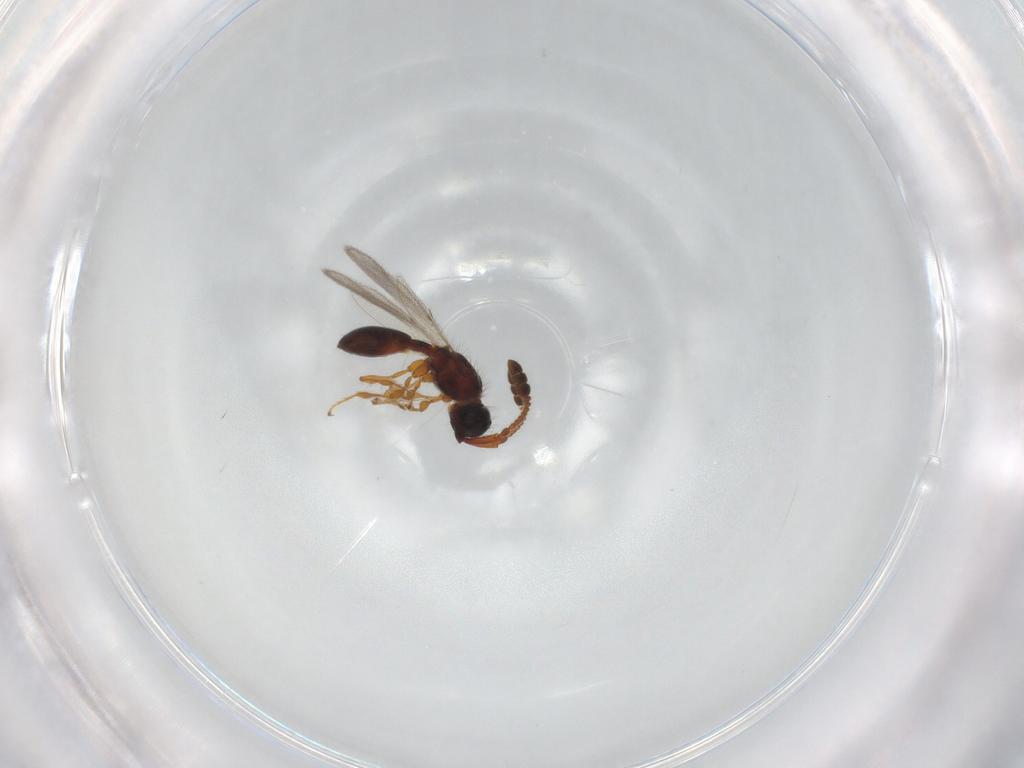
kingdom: Animalia
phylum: Arthropoda
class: Insecta
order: Hymenoptera
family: Diapriidae
